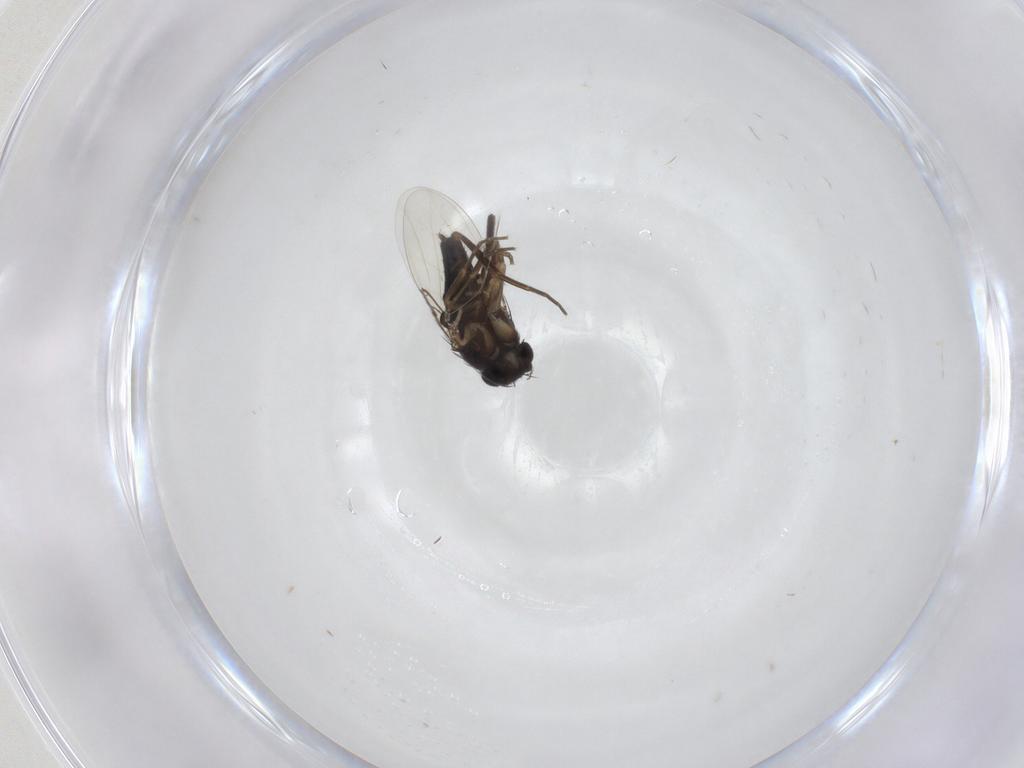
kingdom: Animalia
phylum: Arthropoda
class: Insecta
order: Diptera
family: Phoridae
